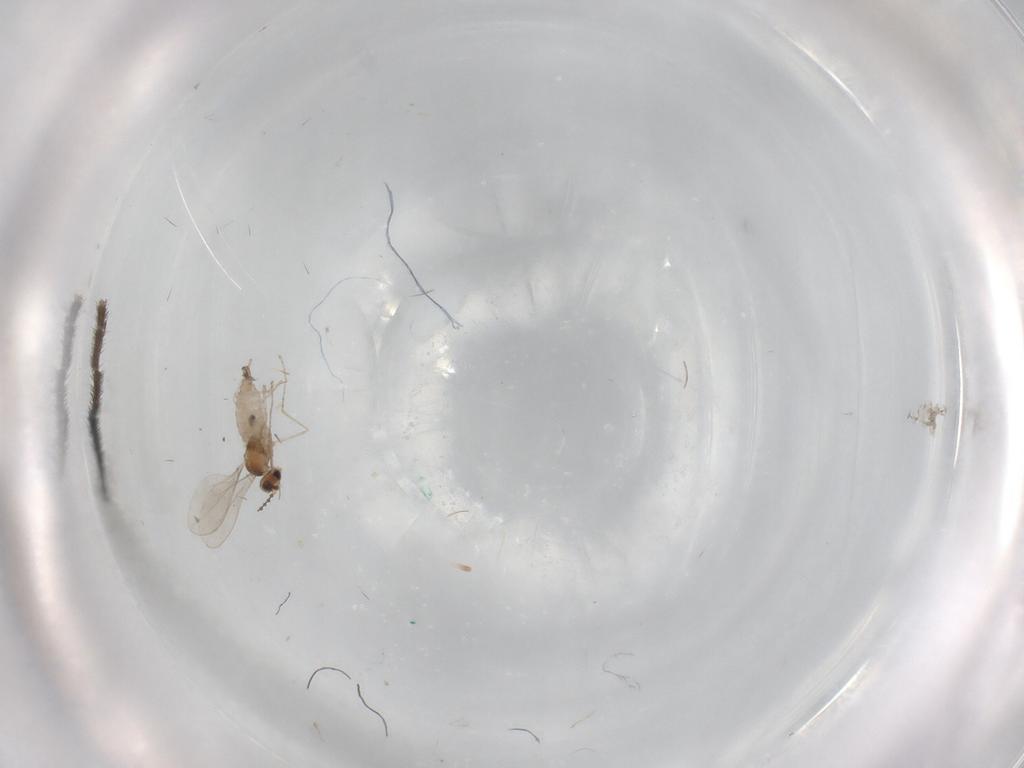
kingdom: Animalia
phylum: Arthropoda
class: Insecta
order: Diptera
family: Cecidomyiidae
